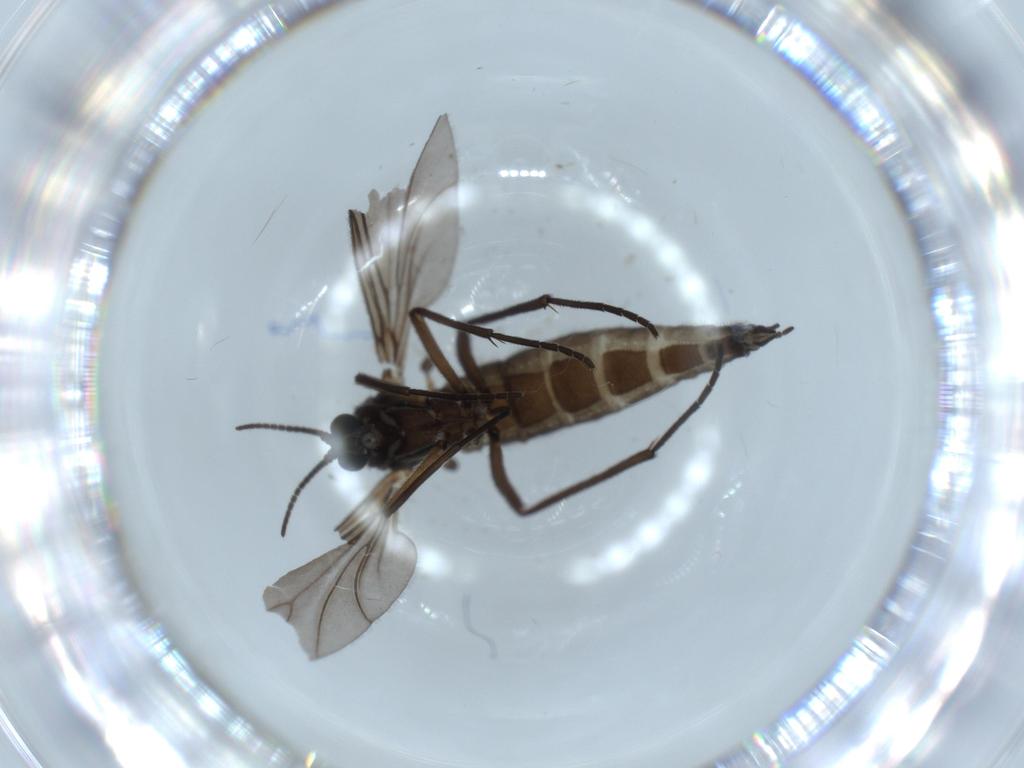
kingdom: Animalia
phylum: Arthropoda
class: Insecta
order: Diptera
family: Sciaridae
